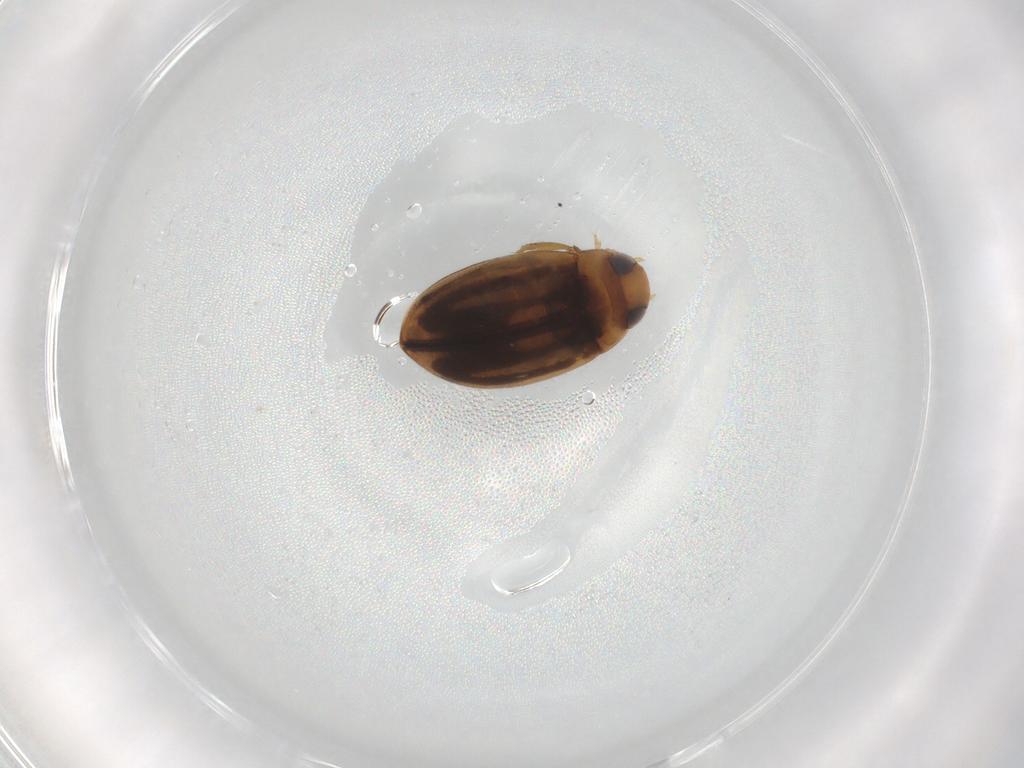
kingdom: Animalia
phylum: Arthropoda
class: Insecta
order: Coleoptera
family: Dytiscidae
